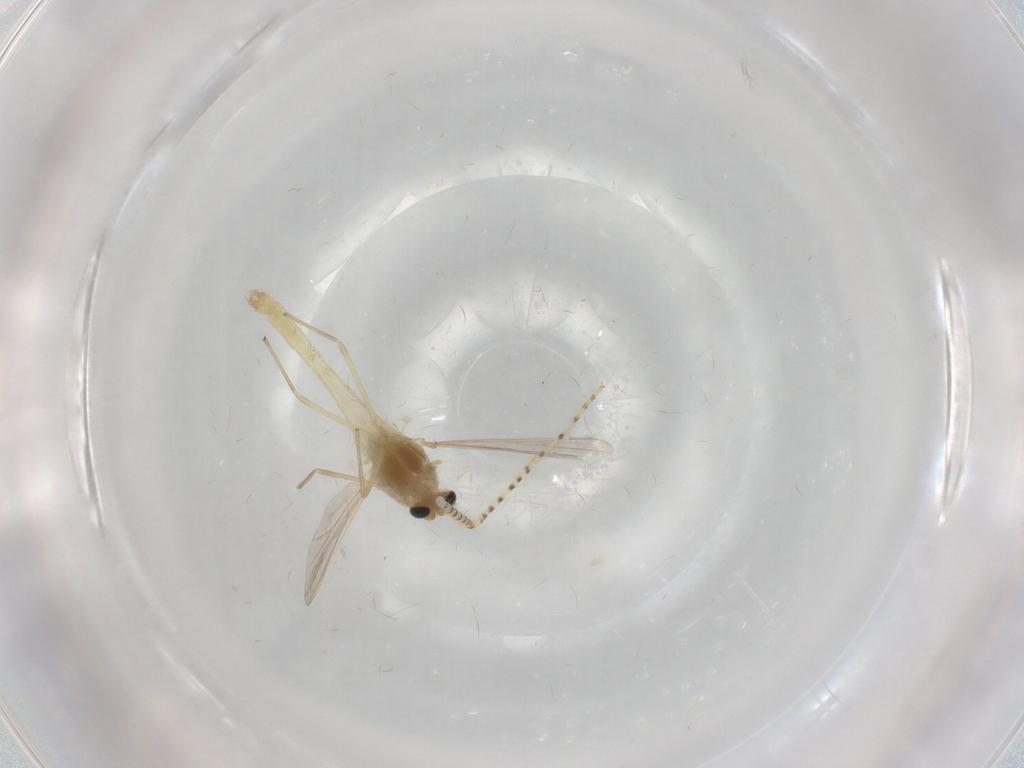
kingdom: Animalia
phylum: Arthropoda
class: Insecta
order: Diptera
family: Chironomidae
